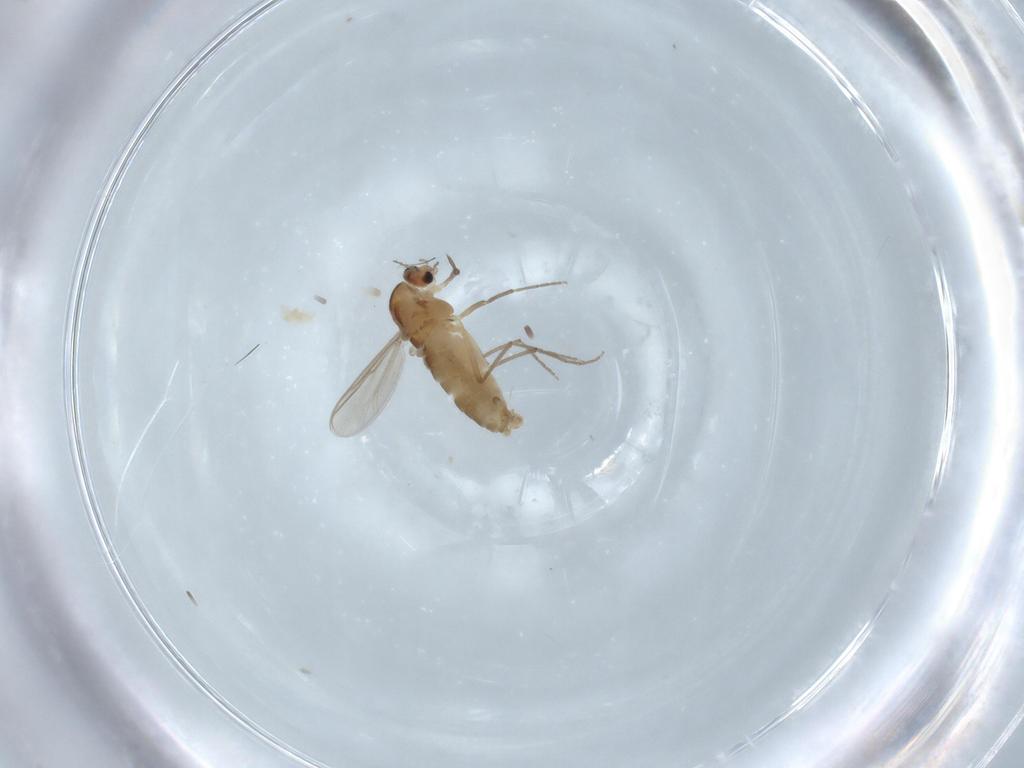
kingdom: Animalia
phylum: Arthropoda
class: Insecta
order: Diptera
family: Chironomidae
